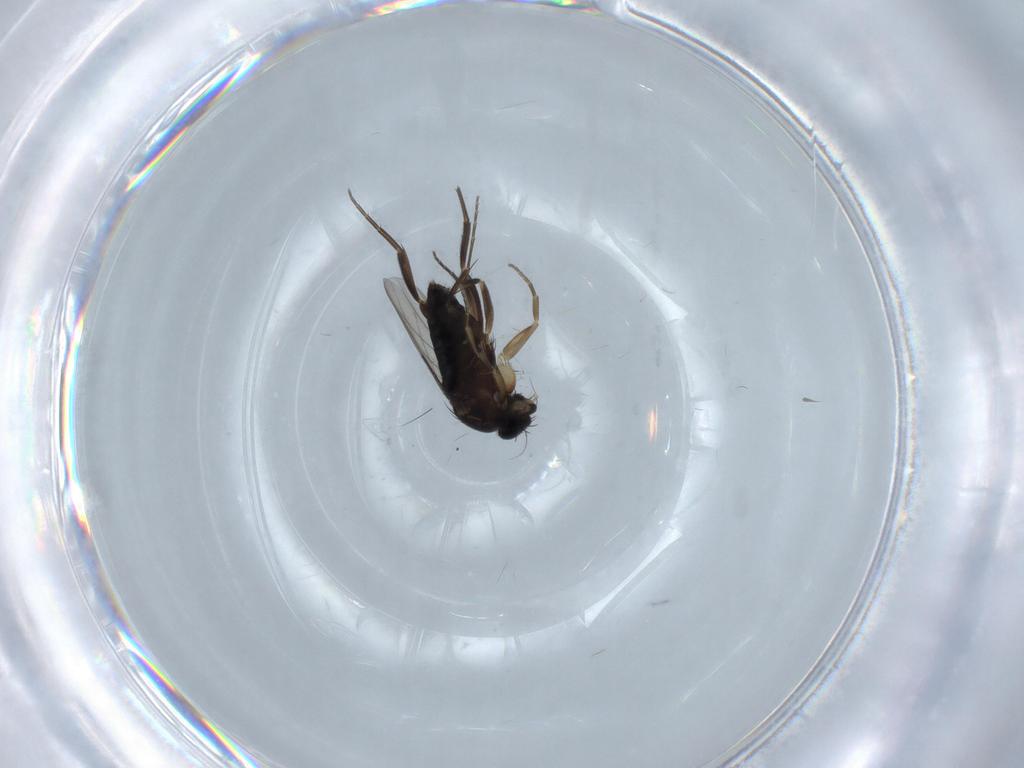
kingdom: Animalia
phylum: Arthropoda
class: Insecta
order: Diptera
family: Phoridae
